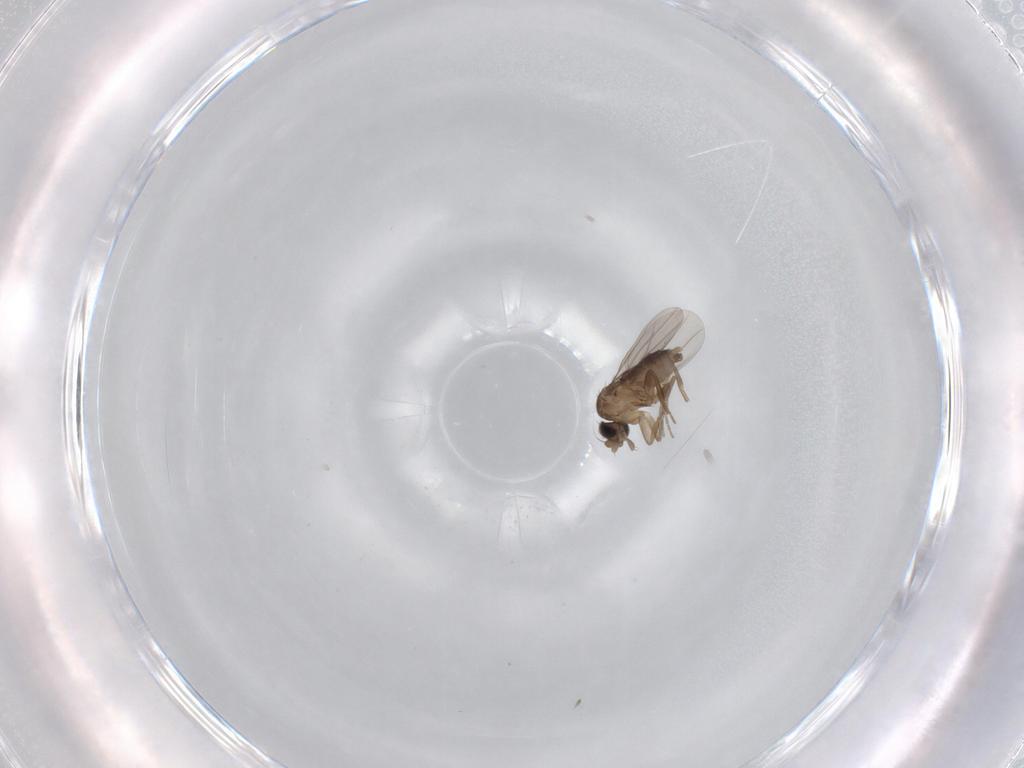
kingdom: Animalia
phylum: Arthropoda
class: Insecta
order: Diptera
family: Phoridae
